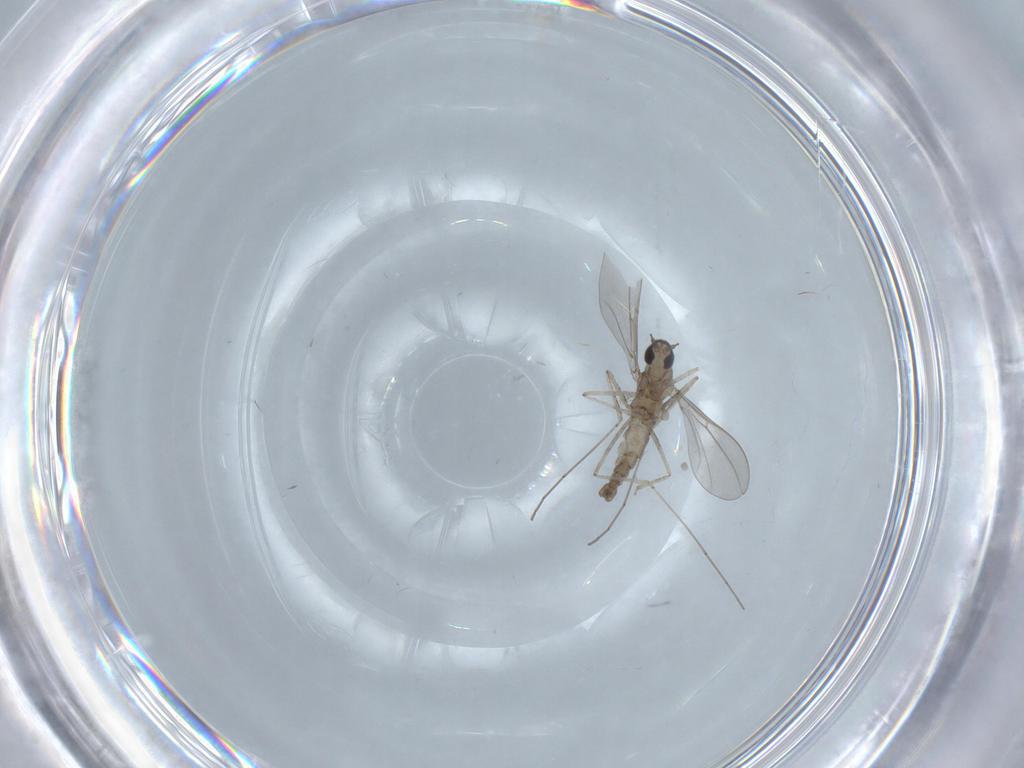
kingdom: Animalia
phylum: Arthropoda
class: Insecta
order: Diptera
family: Cecidomyiidae
